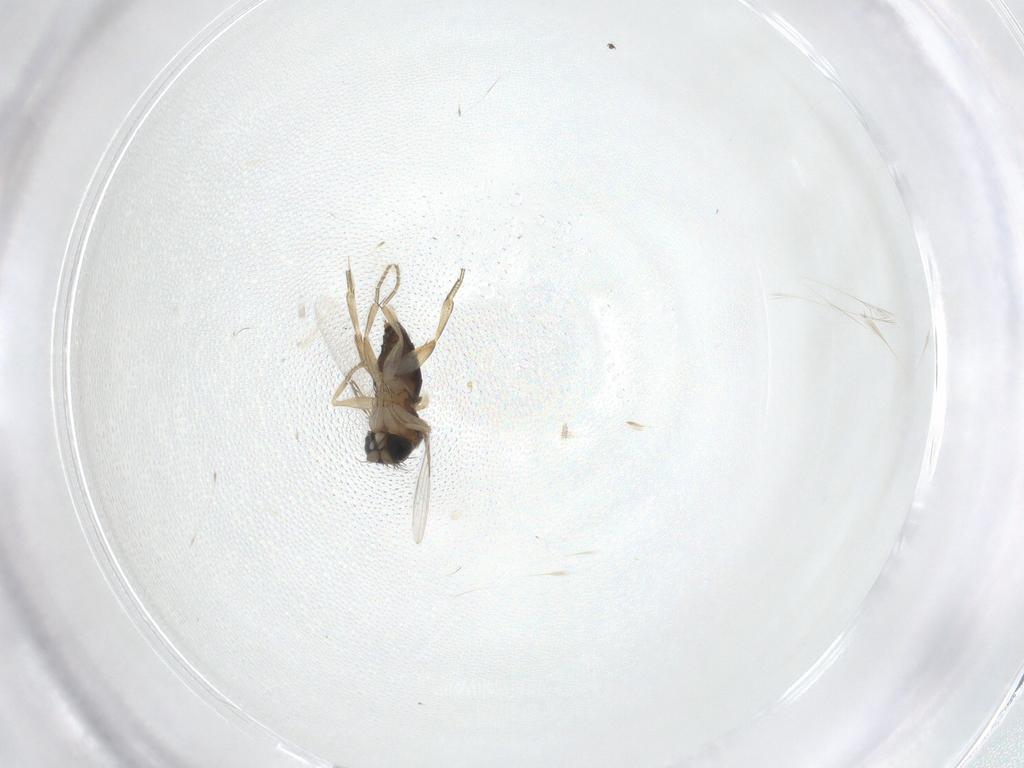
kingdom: Animalia
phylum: Arthropoda
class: Insecta
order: Diptera
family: Phoridae
